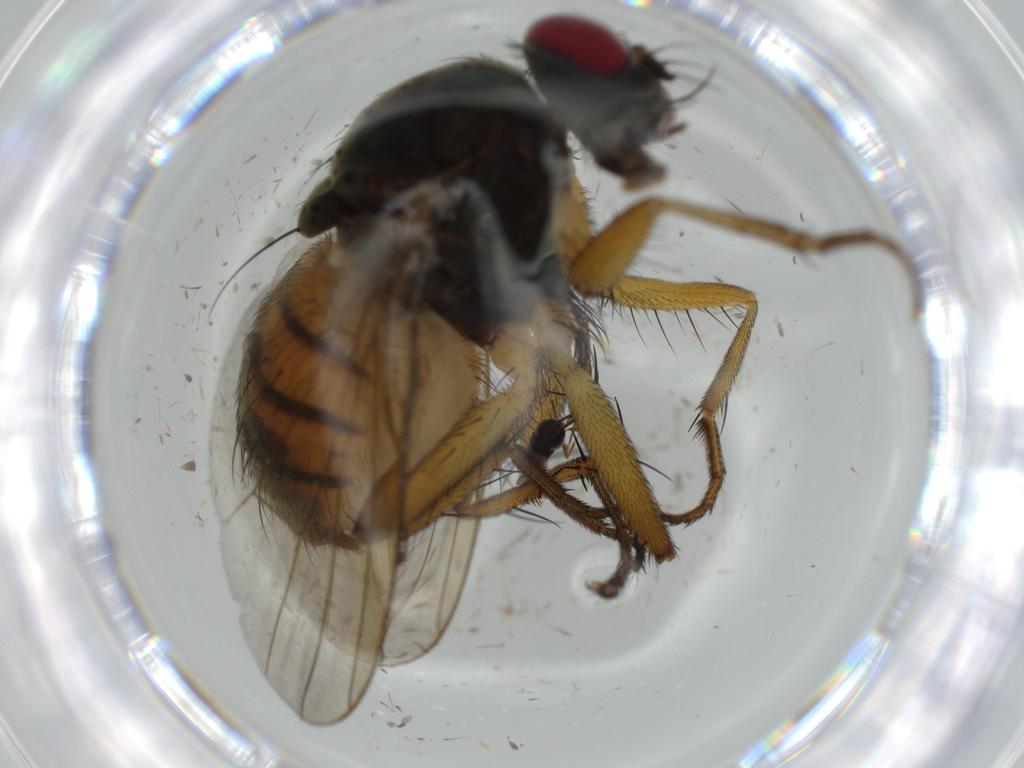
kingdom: Animalia
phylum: Arthropoda
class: Insecta
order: Diptera
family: Muscidae
